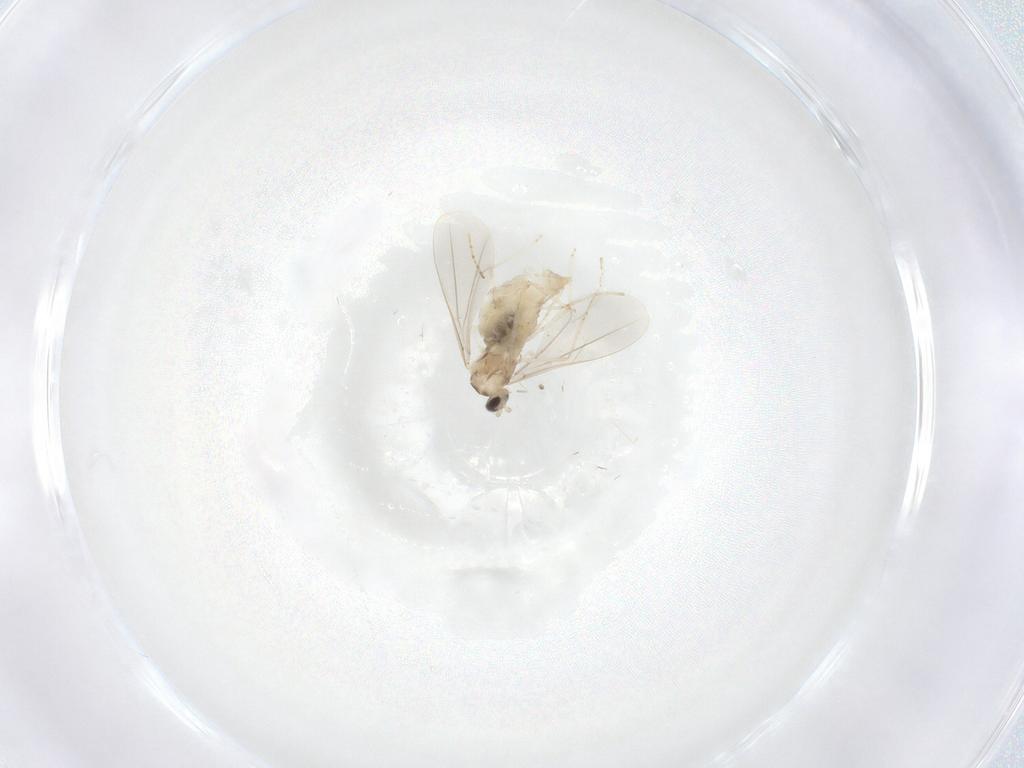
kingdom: Animalia
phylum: Arthropoda
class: Insecta
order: Diptera
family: Cecidomyiidae
